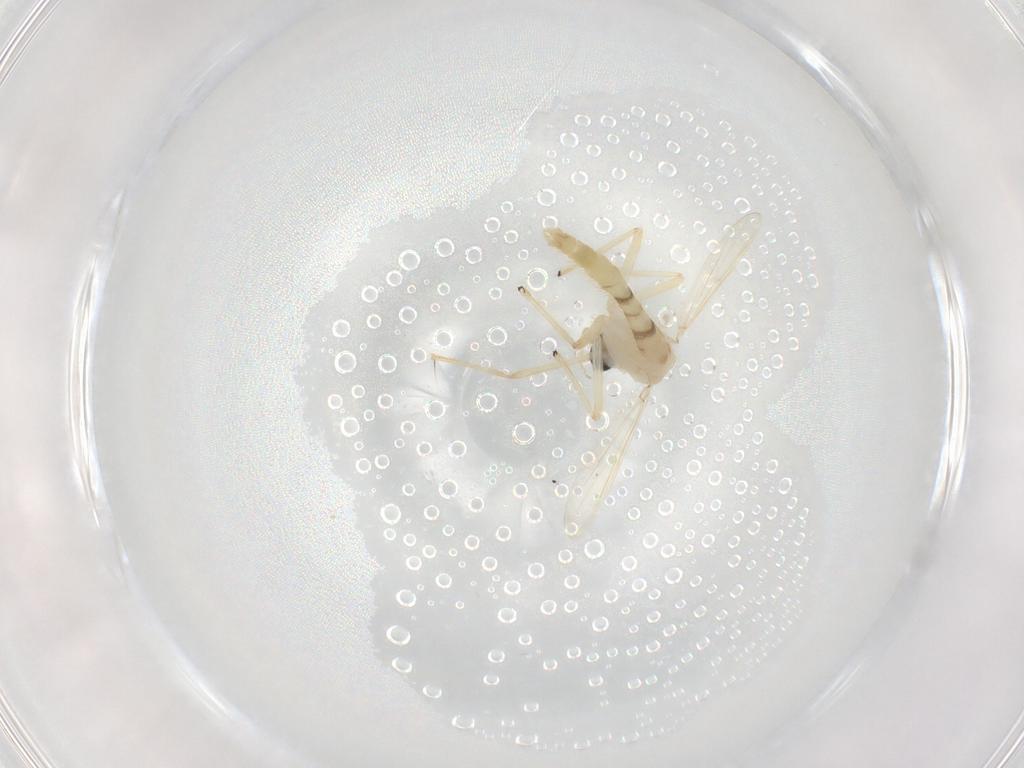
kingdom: Animalia
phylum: Arthropoda
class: Insecta
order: Diptera
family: Chironomidae
